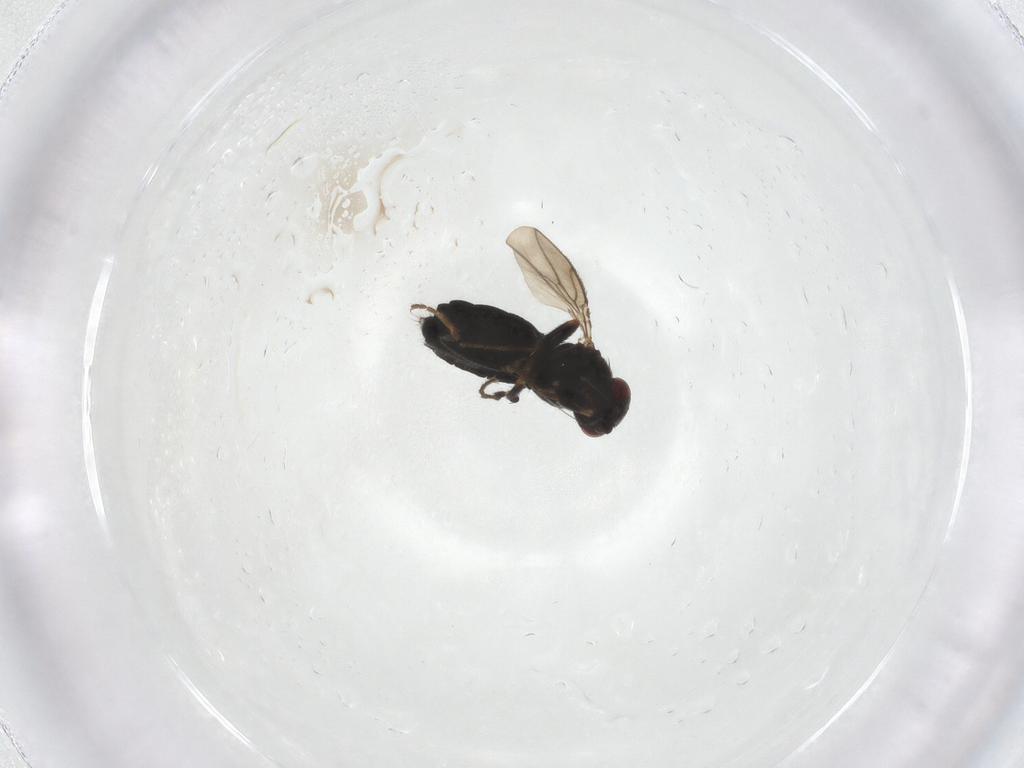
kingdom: Animalia
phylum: Arthropoda
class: Insecta
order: Diptera
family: Sphaeroceridae
